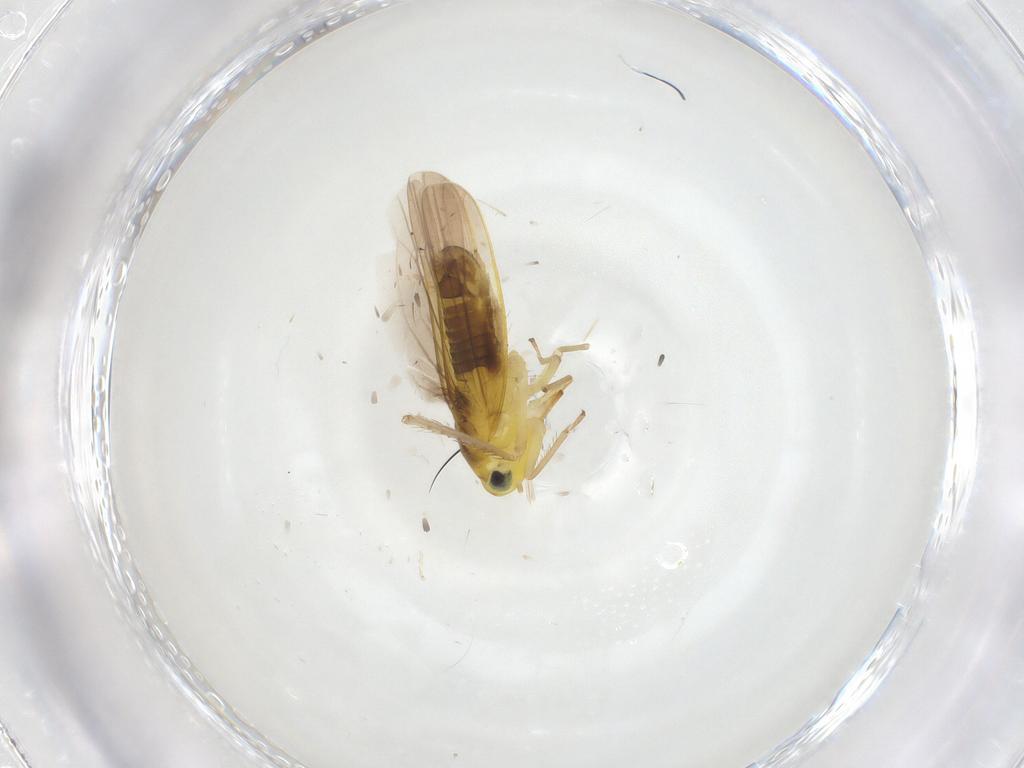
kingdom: Animalia
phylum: Arthropoda
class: Insecta
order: Hemiptera
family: Cicadellidae
